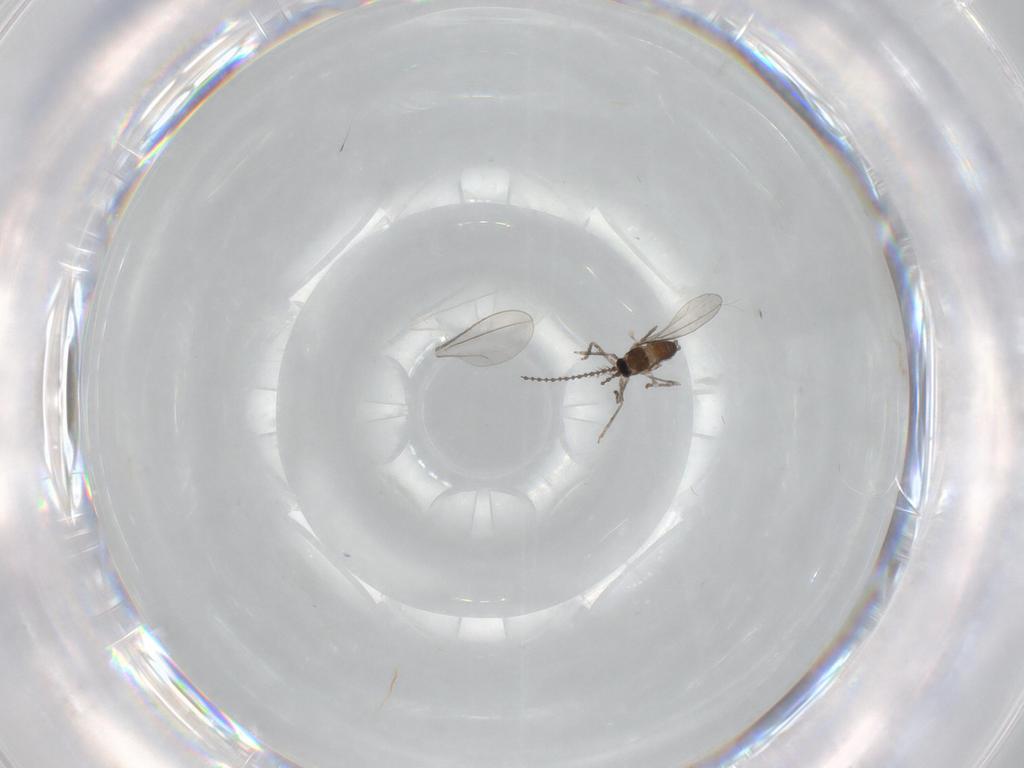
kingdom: Animalia
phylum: Arthropoda
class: Insecta
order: Diptera
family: Cecidomyiidae
